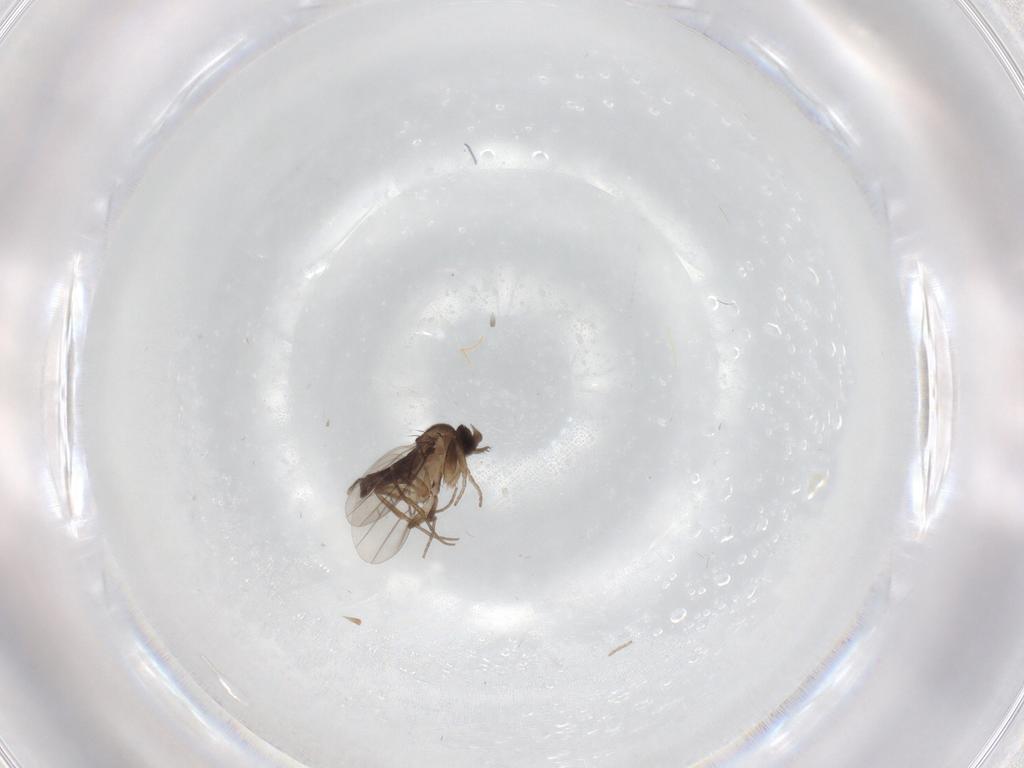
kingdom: Animalia
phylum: Arthropoda
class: Insecta
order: Diptera
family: Phoridae
